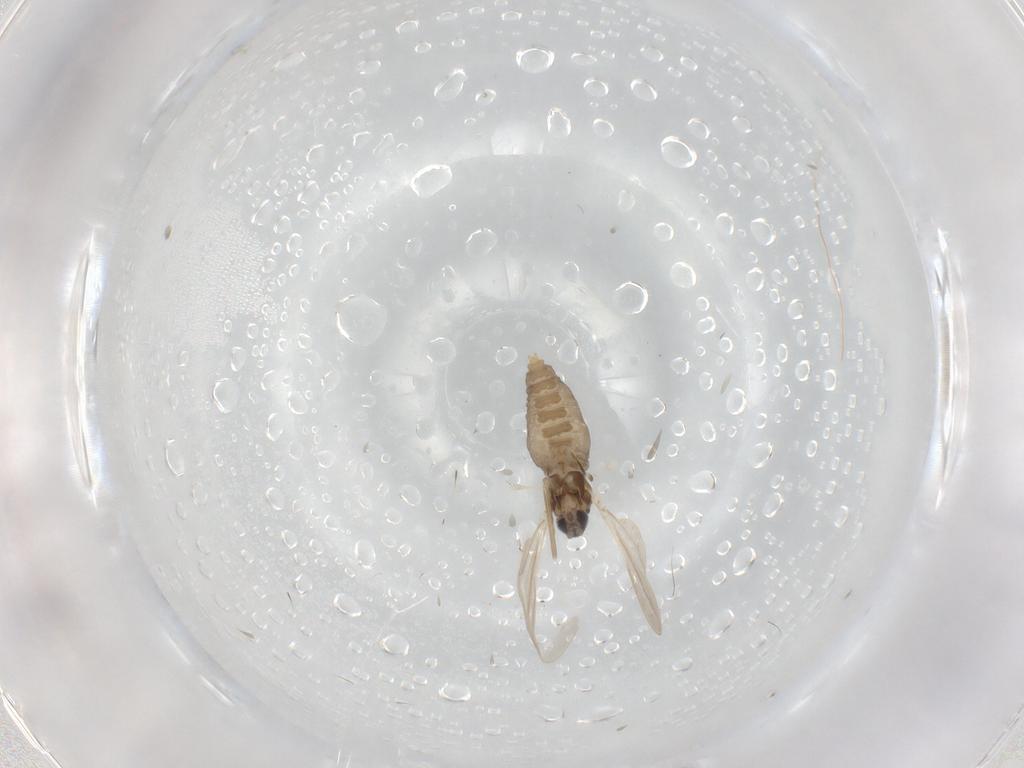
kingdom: Animalia
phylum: Arthropoda
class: Insecta
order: Diptera
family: Cecidomyiidae
